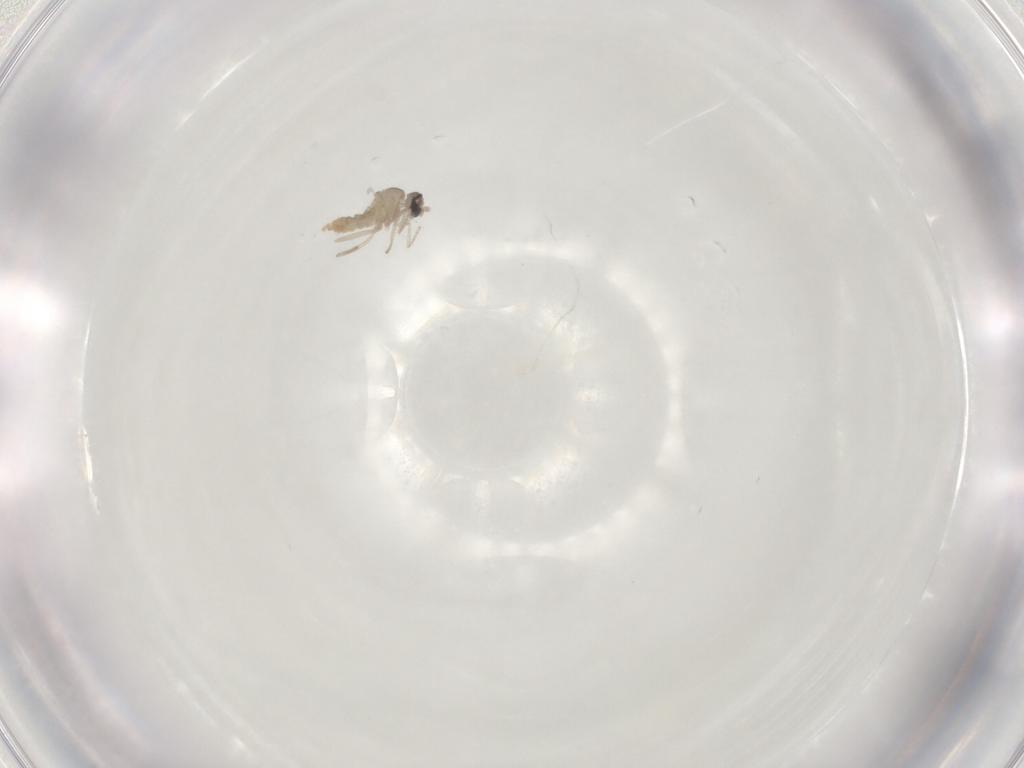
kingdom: Animalia
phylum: Arthropoda
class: Insecta
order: Diptera
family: Cecidomyiidae
